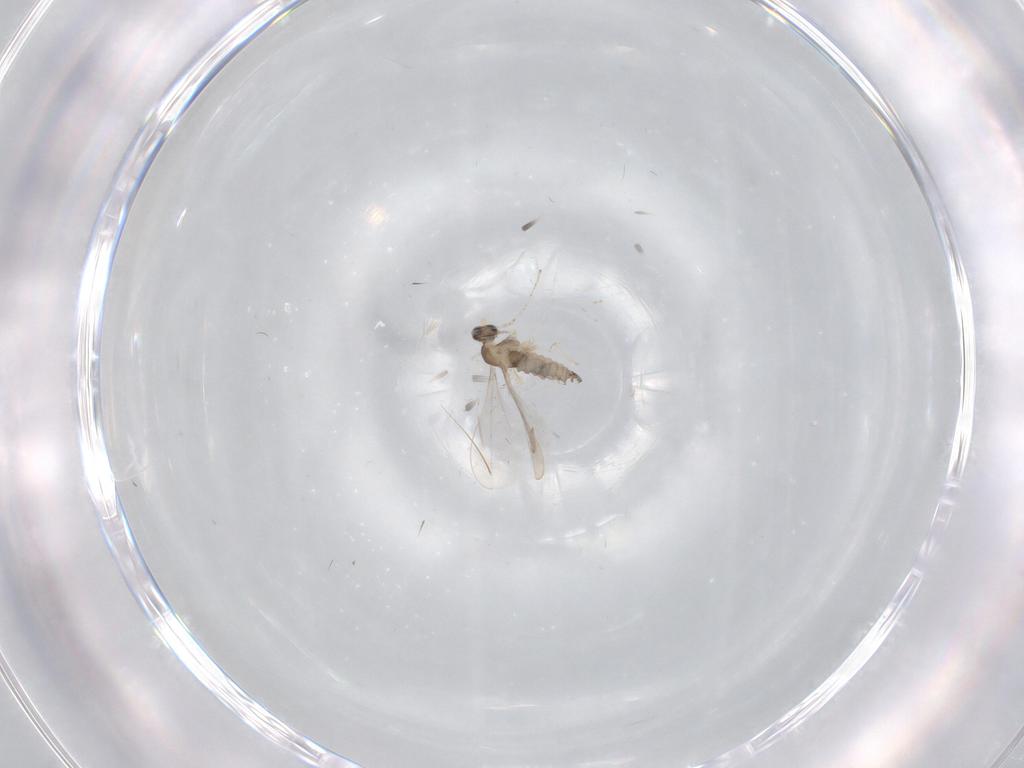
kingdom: Animalia
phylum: Arthropoda
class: Insecta
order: Diptera
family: Cecidomyiidae
